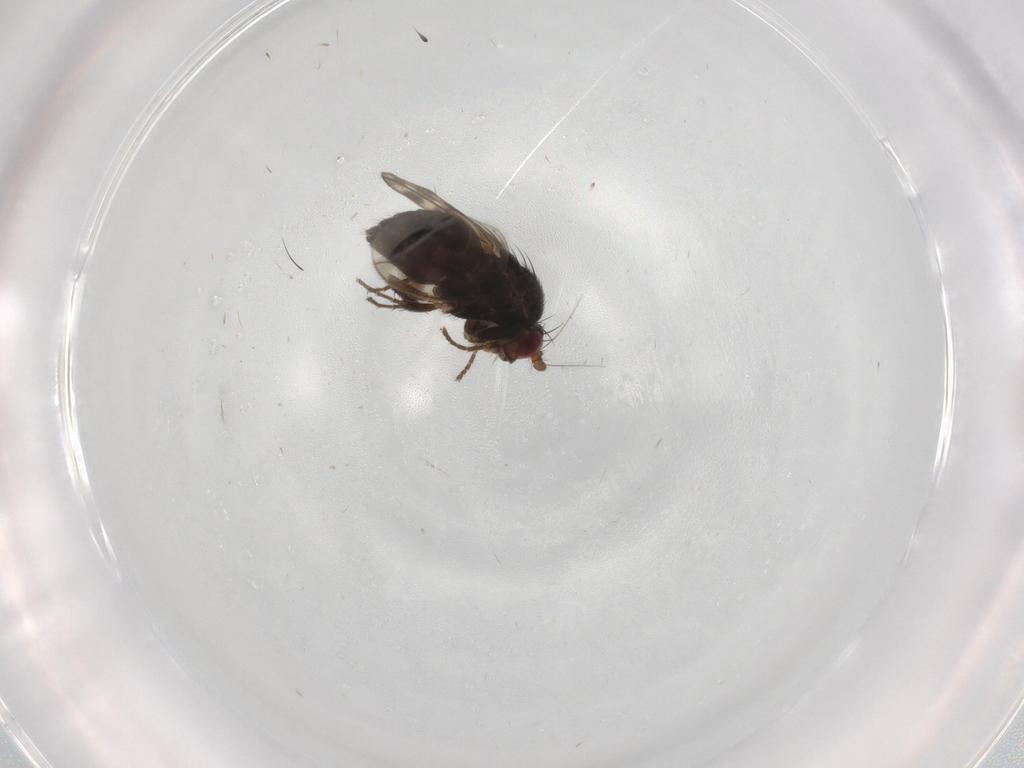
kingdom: Animalia
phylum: Arthropoda
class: Insecta
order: Diptera
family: Sphaeroceridae
